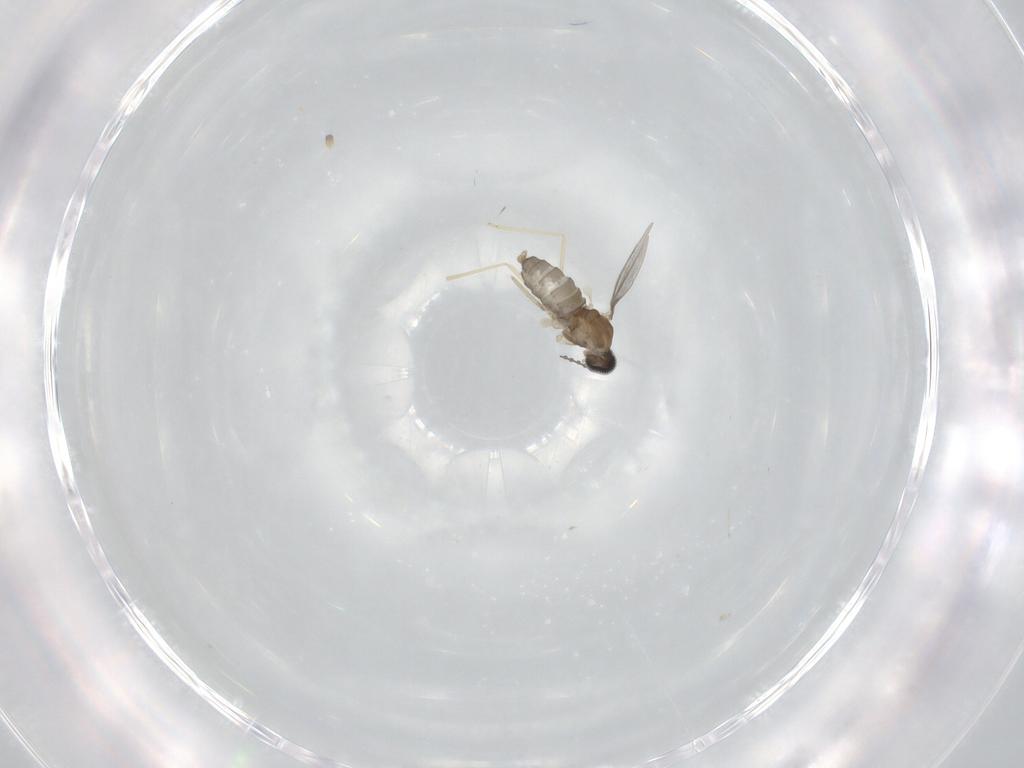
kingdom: Animalia
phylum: Arthropoda
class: Insecta
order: Diptera
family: Cecidomyiidae
